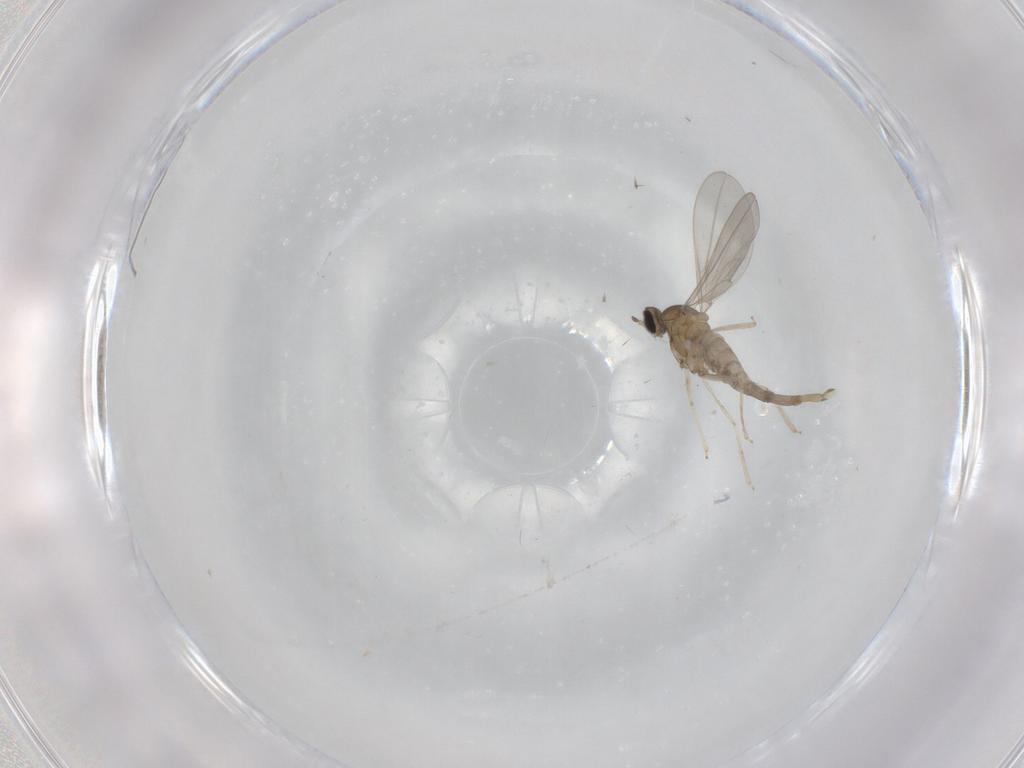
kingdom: Animalia
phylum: Arthropoda
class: Insecta
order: Diptera
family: Cecidomyiidae
